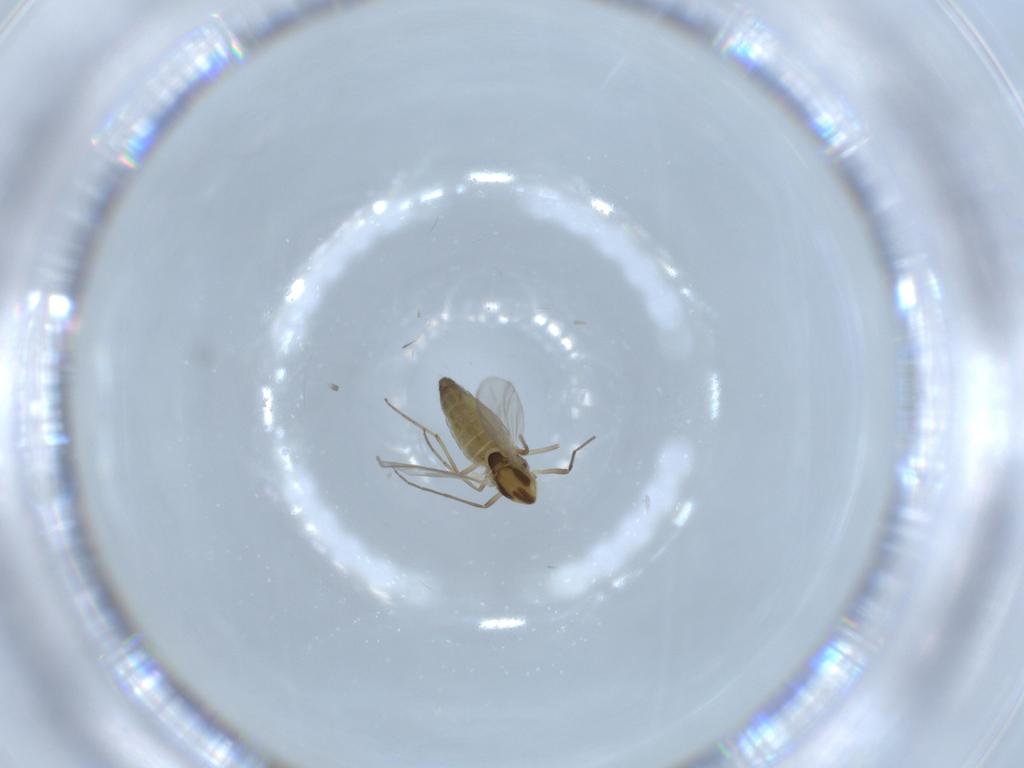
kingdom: Animalia
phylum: Arthropoda
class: Insecta
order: Diptera
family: Chironomidae
